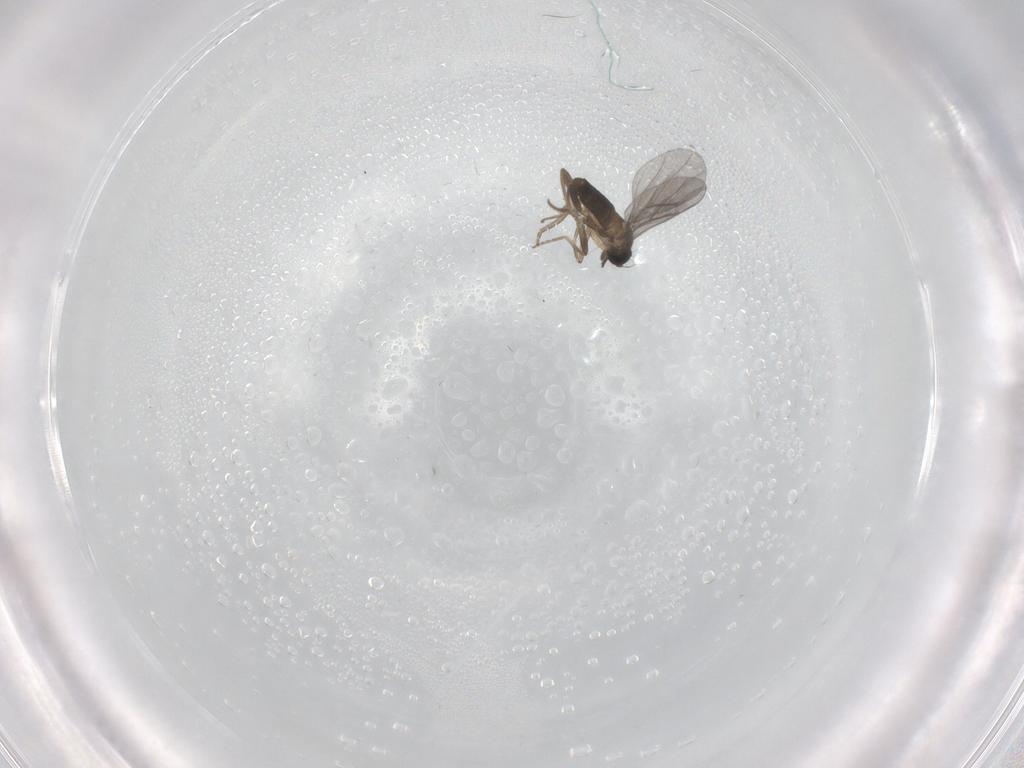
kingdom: Animalia
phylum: Arthropoda
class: Insecta
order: Diptera
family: Phoridae
